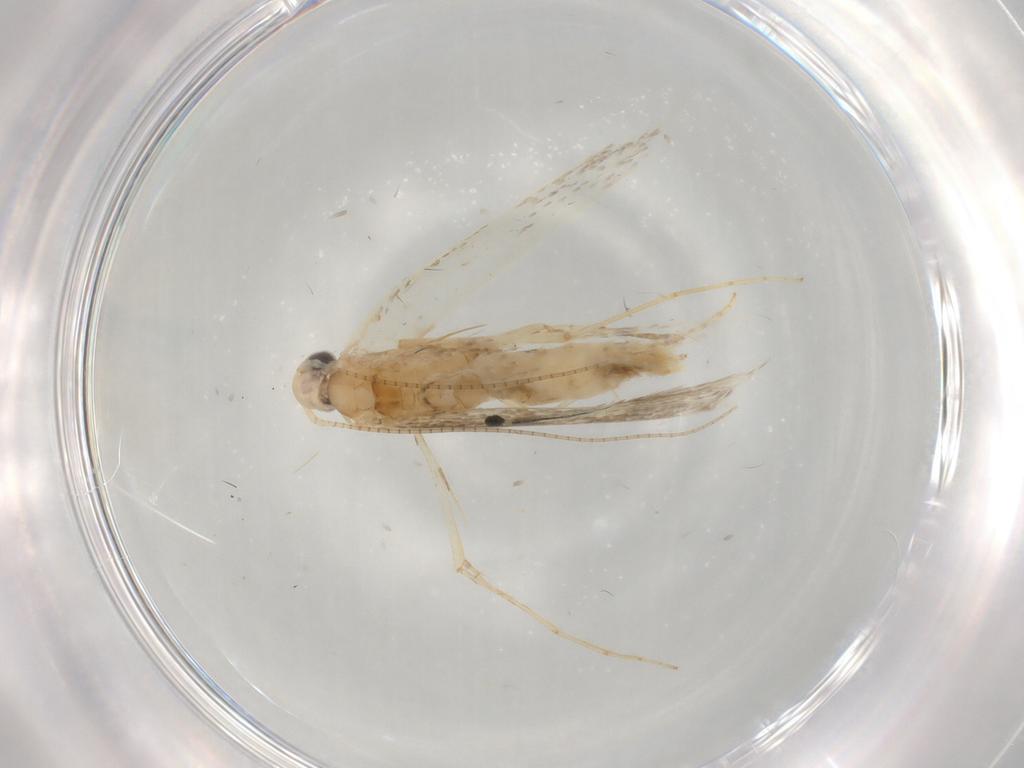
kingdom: Animalia
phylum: Arthropoda
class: Insecta
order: Lepidoptera
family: Gracillariidae
